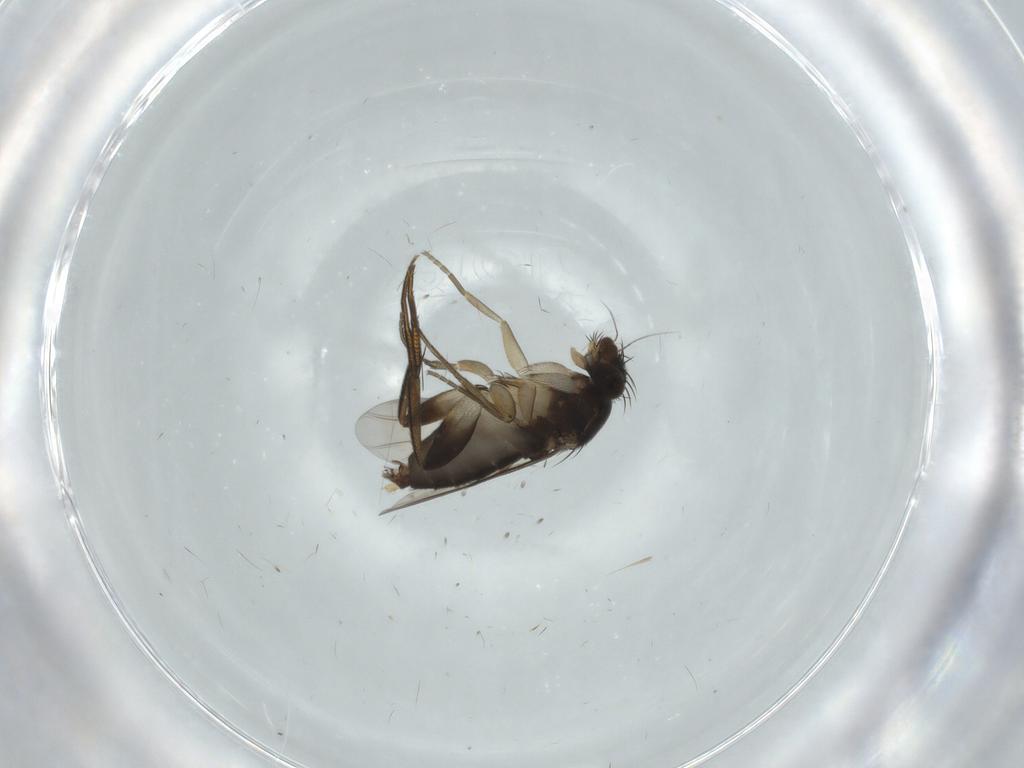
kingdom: Animalia
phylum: Arthropoda
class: Insecta
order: Diptera
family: Phoridae
